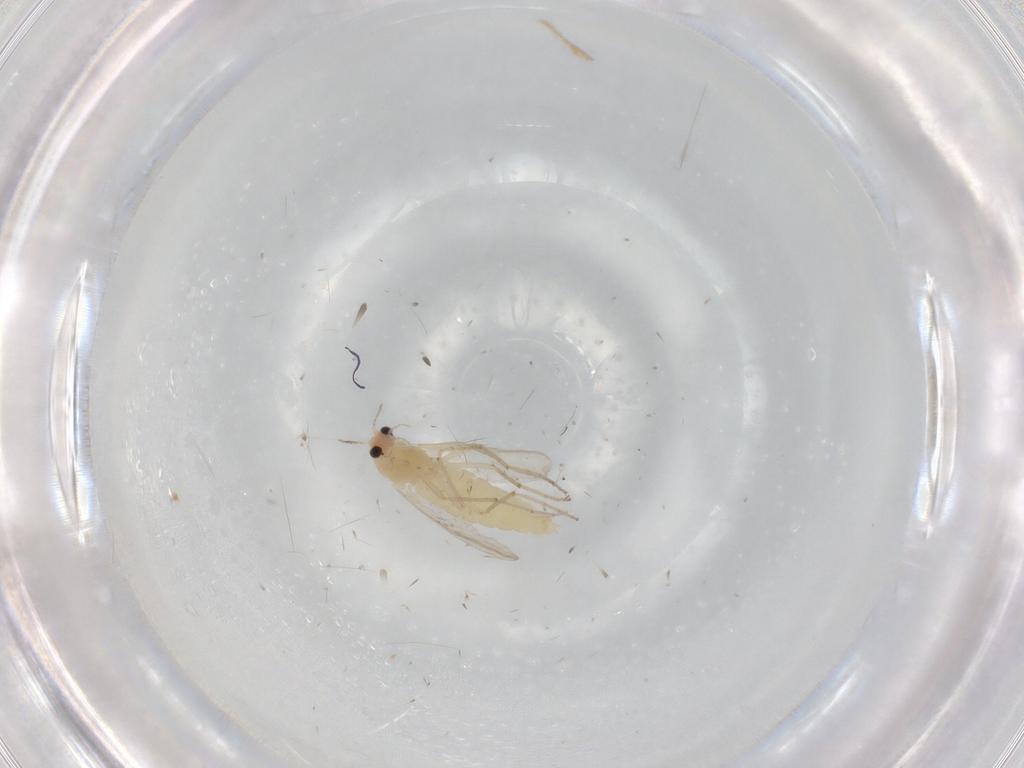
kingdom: Animalia
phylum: Arthropoda
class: Insecta
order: Diptera
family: Chironomidae
